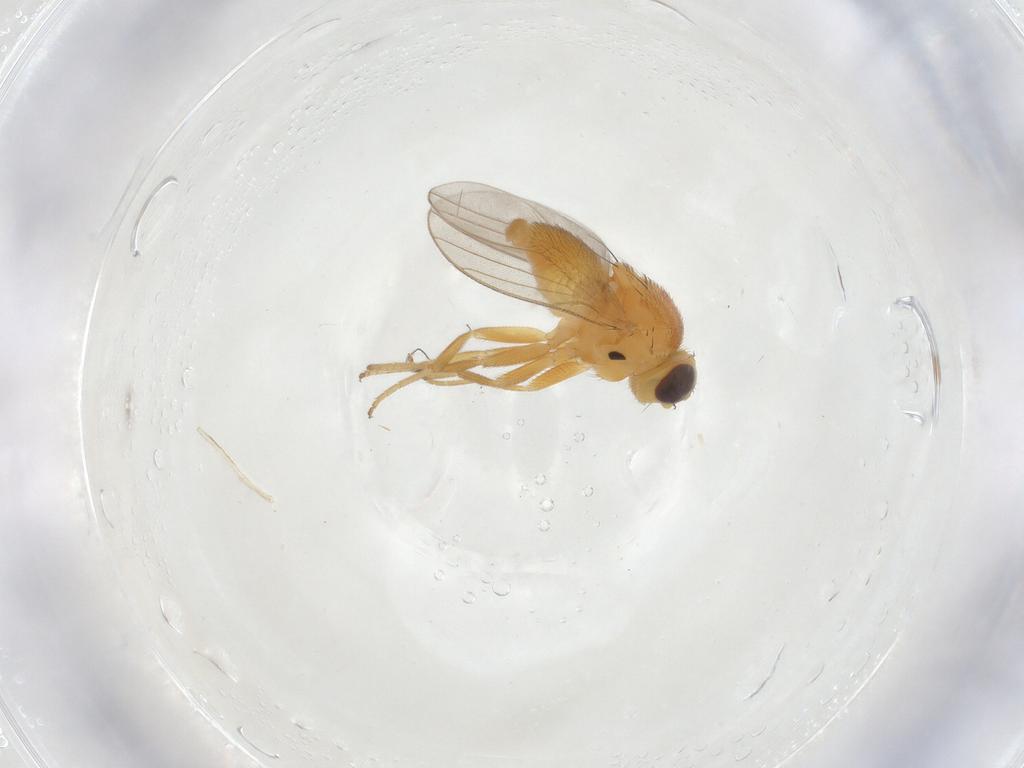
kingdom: Animalia
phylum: Arthropoda
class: Insecta
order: Diptera
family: Chloropidae
